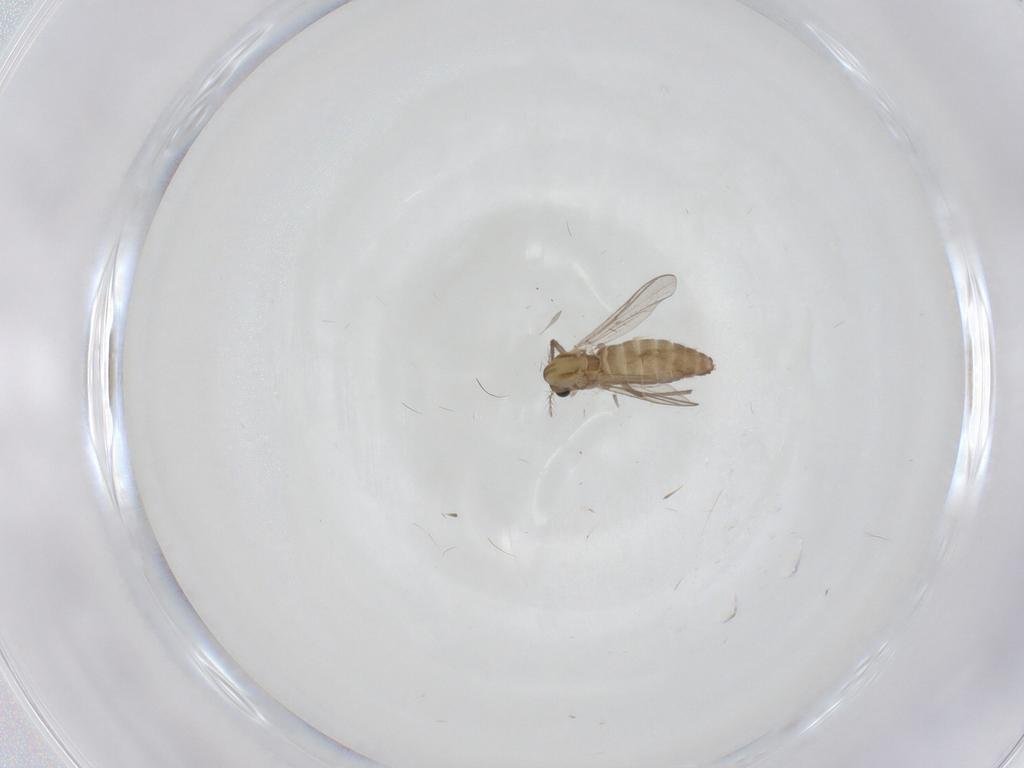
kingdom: Animalia
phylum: Arthropoda
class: Insecta
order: Diptera
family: Chironomidae
